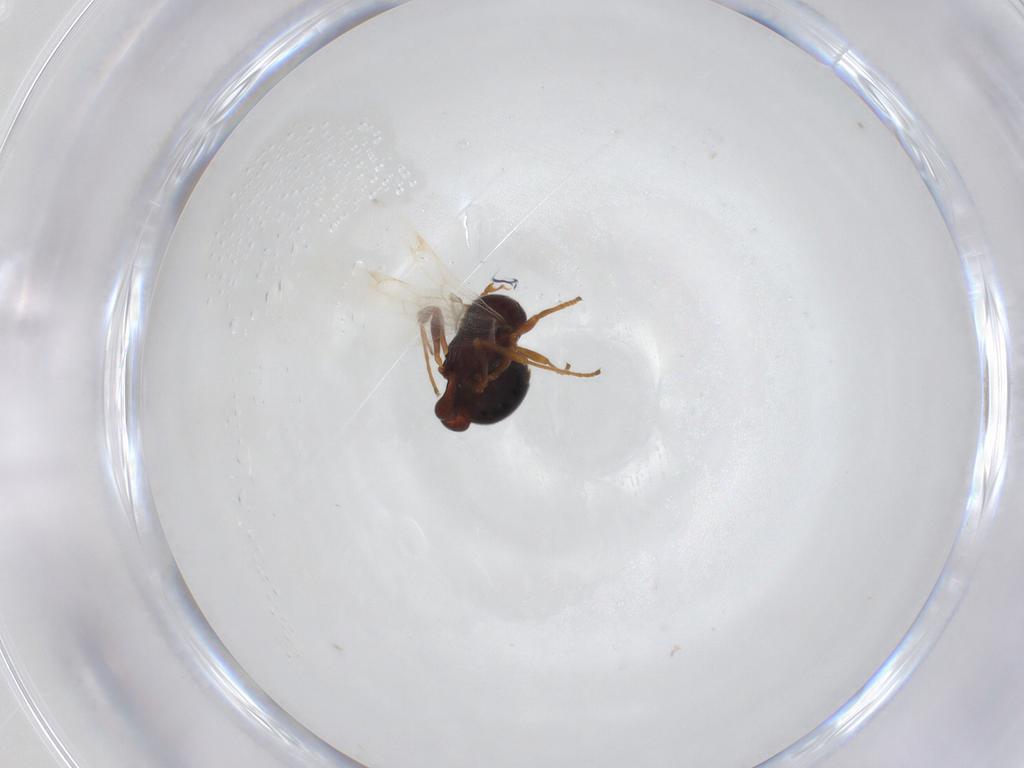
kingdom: Animalia
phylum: Arthropoda
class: Insecta
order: Hymenoptera
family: Formicidae
